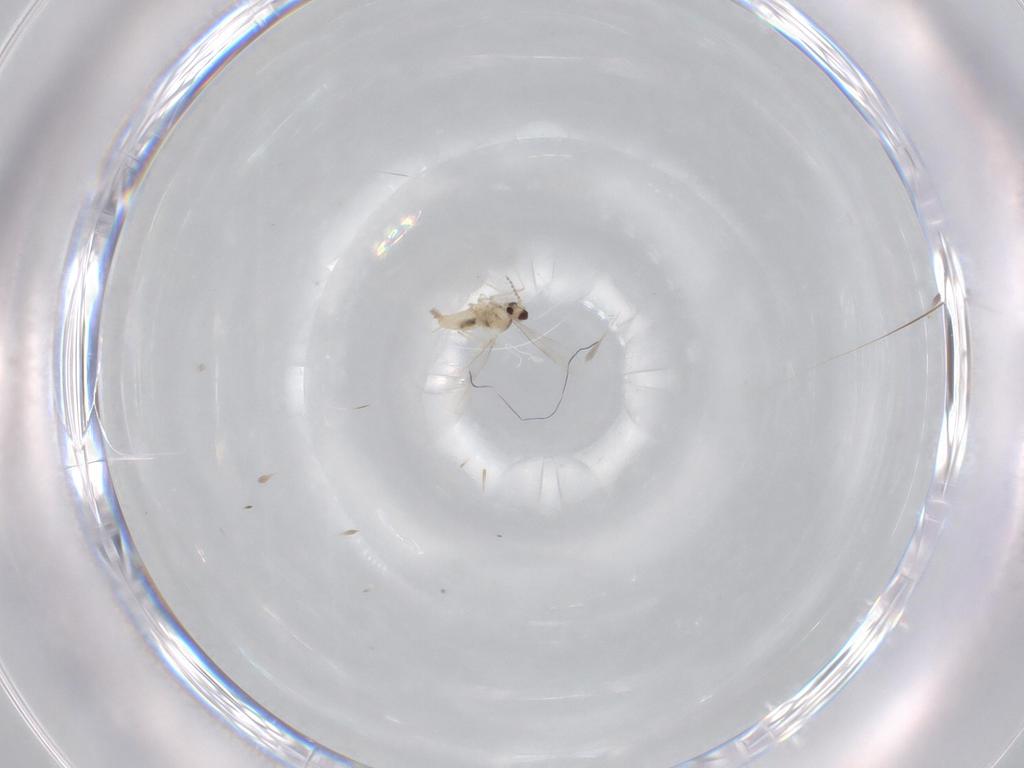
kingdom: Animalia
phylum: Arthropoda
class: Insecta
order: Diptera
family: Cecidomyiidae
